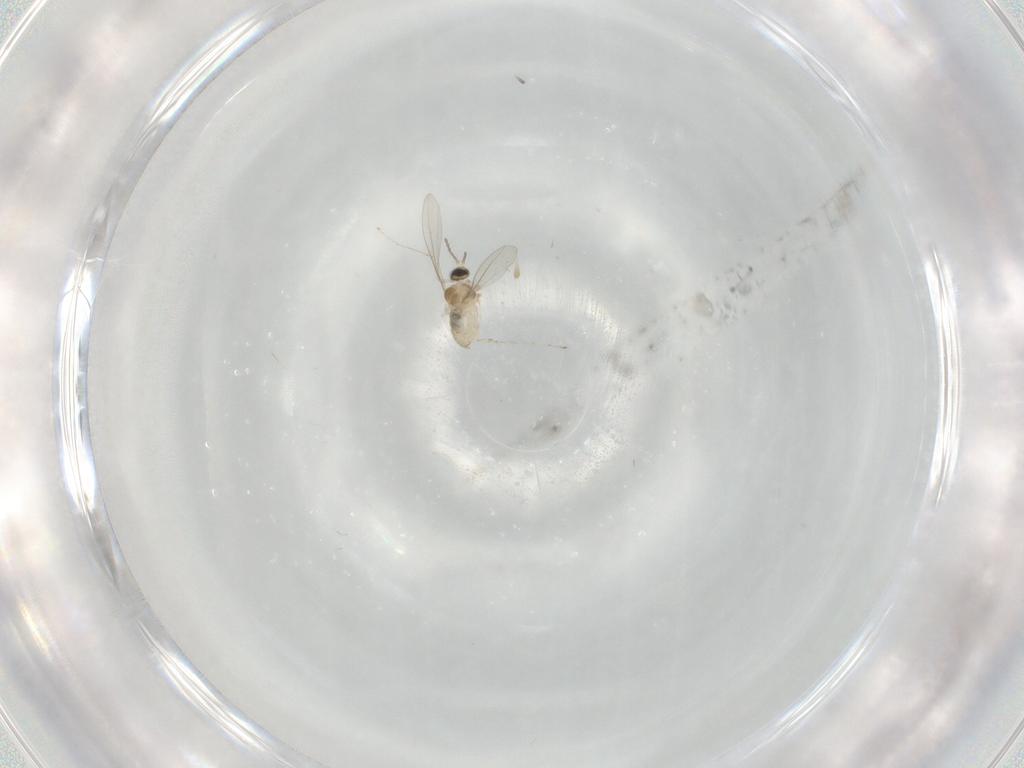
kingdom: Animalia
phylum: Arthropoda
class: Insecta
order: Diptera
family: Cecidomyiidae
